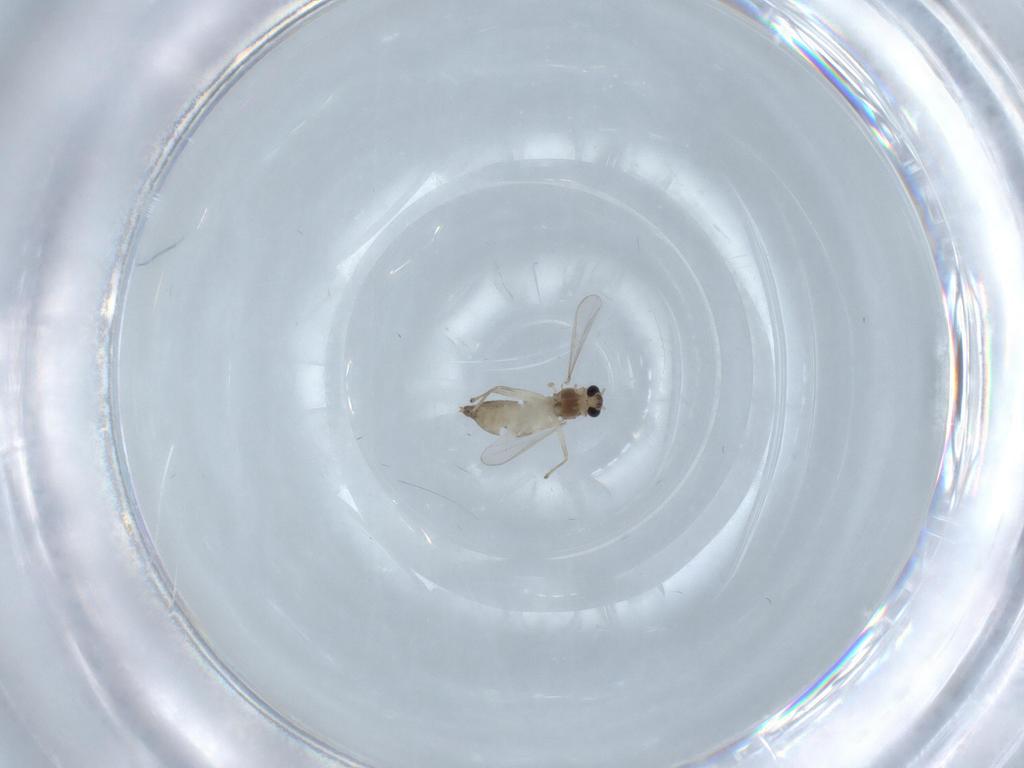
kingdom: Animalia
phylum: Arthropoda
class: Insecta
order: Diptera
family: Chironomidae
